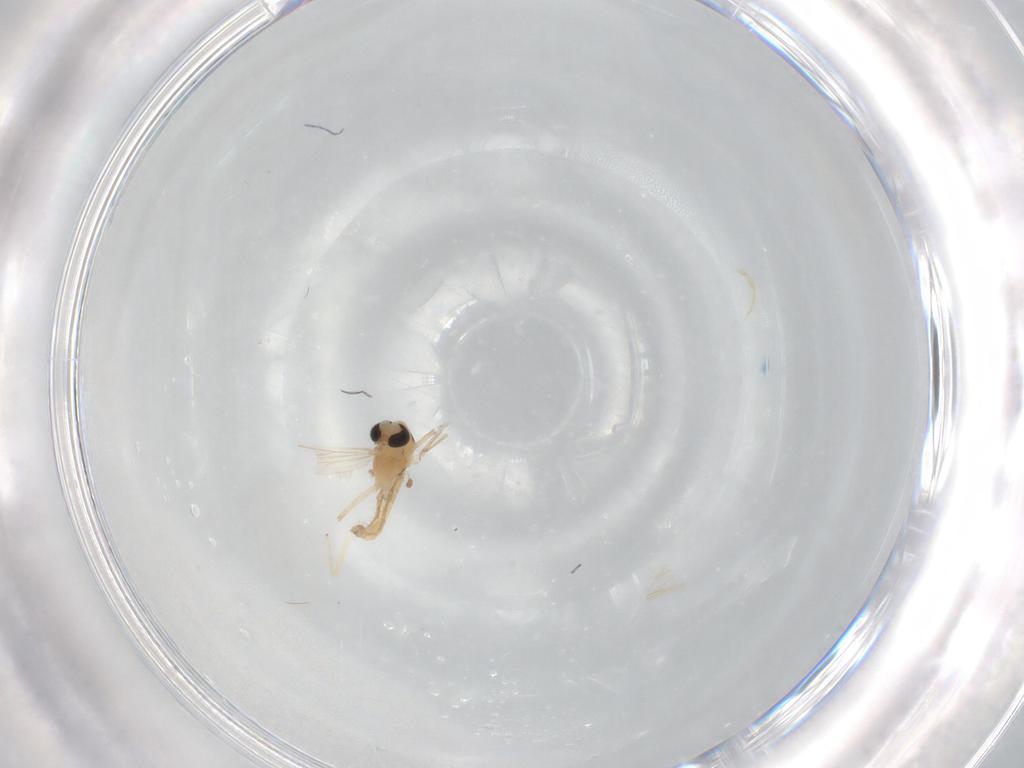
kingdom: Animalia
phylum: Arthropoda
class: Insecta
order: Diptera
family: Chironomidae
